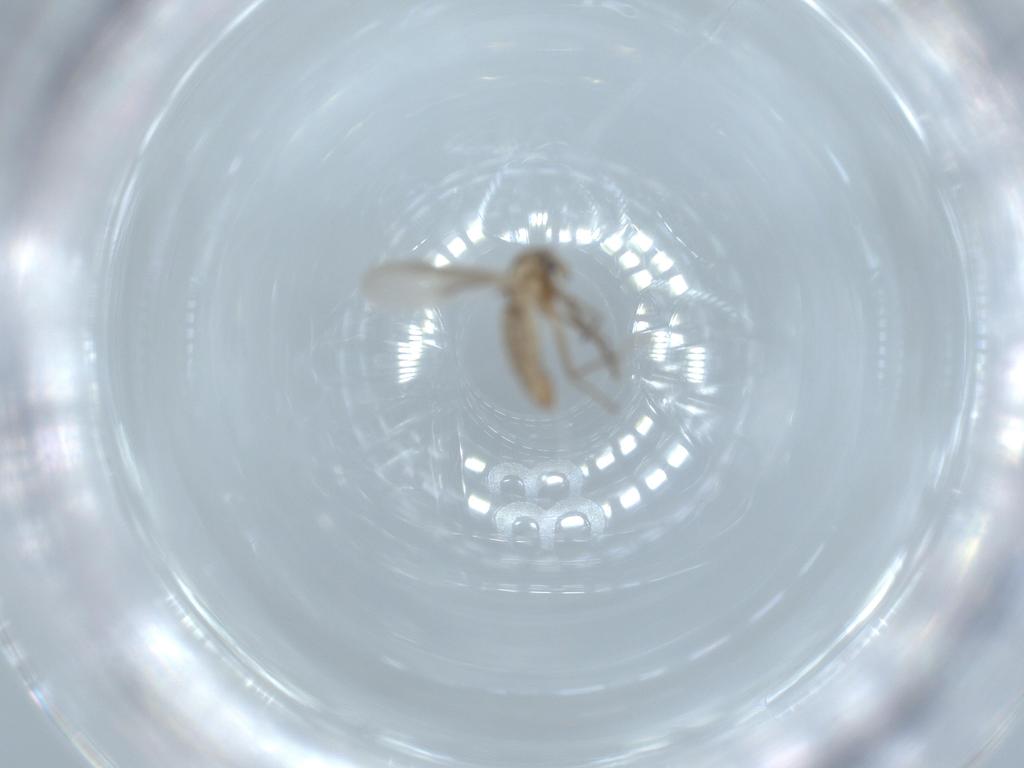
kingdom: Animalia
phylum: Arthropoda
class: Insecta
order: Diptera
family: Chironomidae
